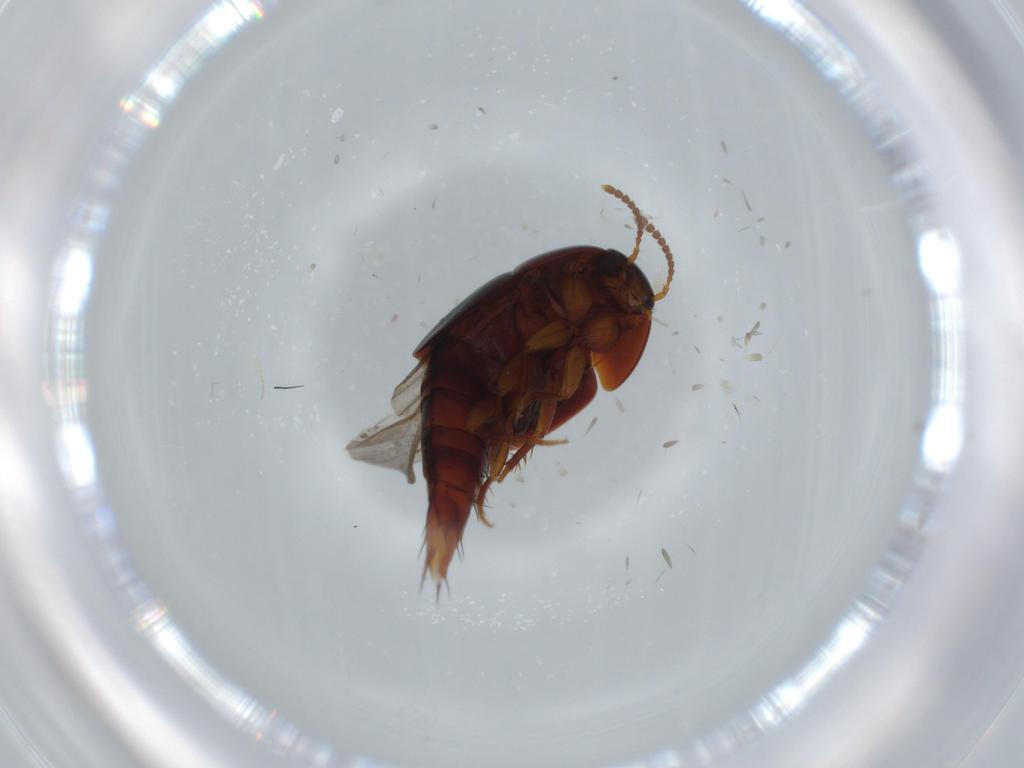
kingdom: Animalia
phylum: Arthropoda
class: Insecta
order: Coleoptera
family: Staphylinidae
